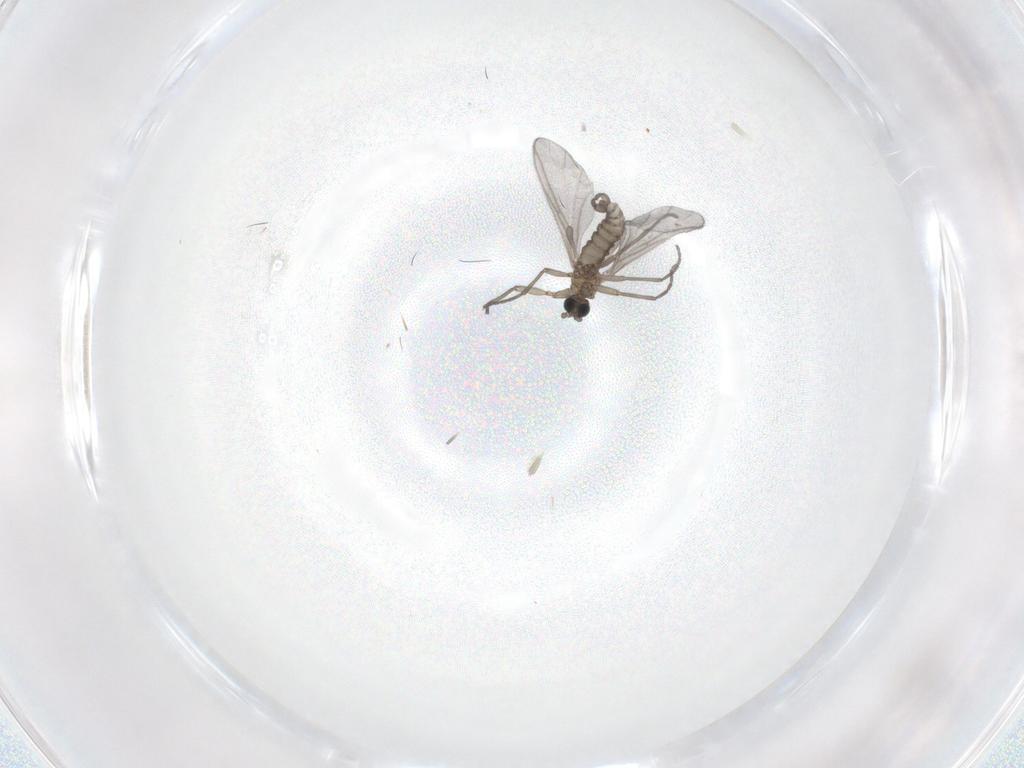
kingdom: Animalia
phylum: Arthropoda
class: Insecta
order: Diptera
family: Sciaridae
